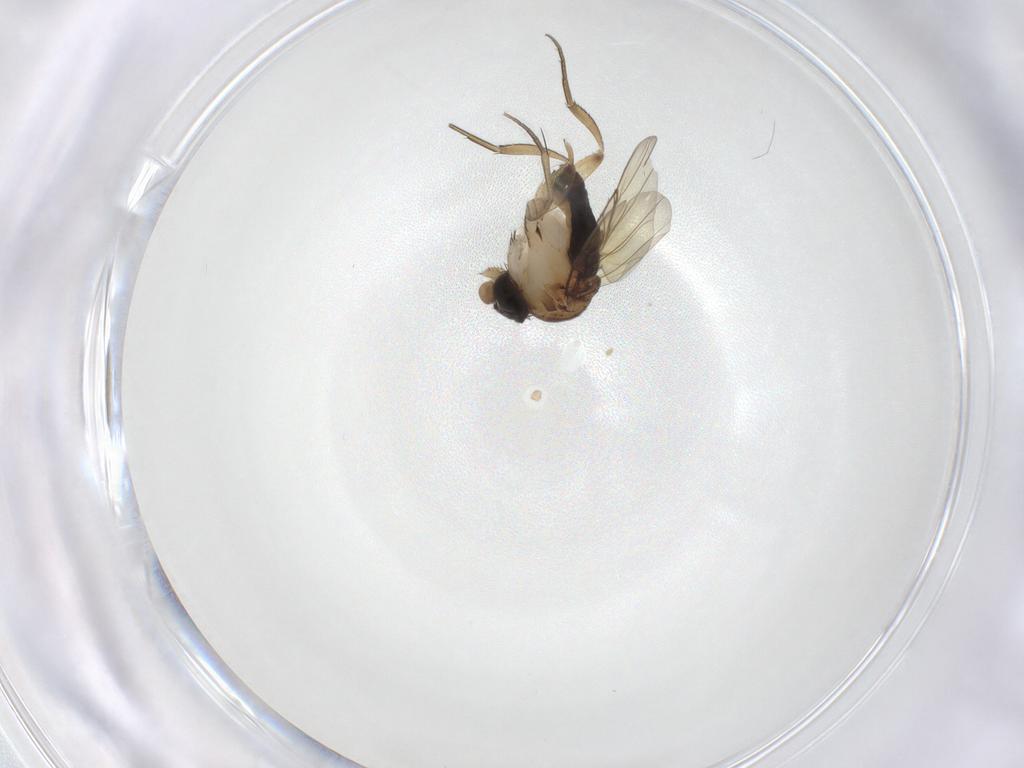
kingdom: Animalia
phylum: Arthropoda
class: Insecta
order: Diptera
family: Phoridae
